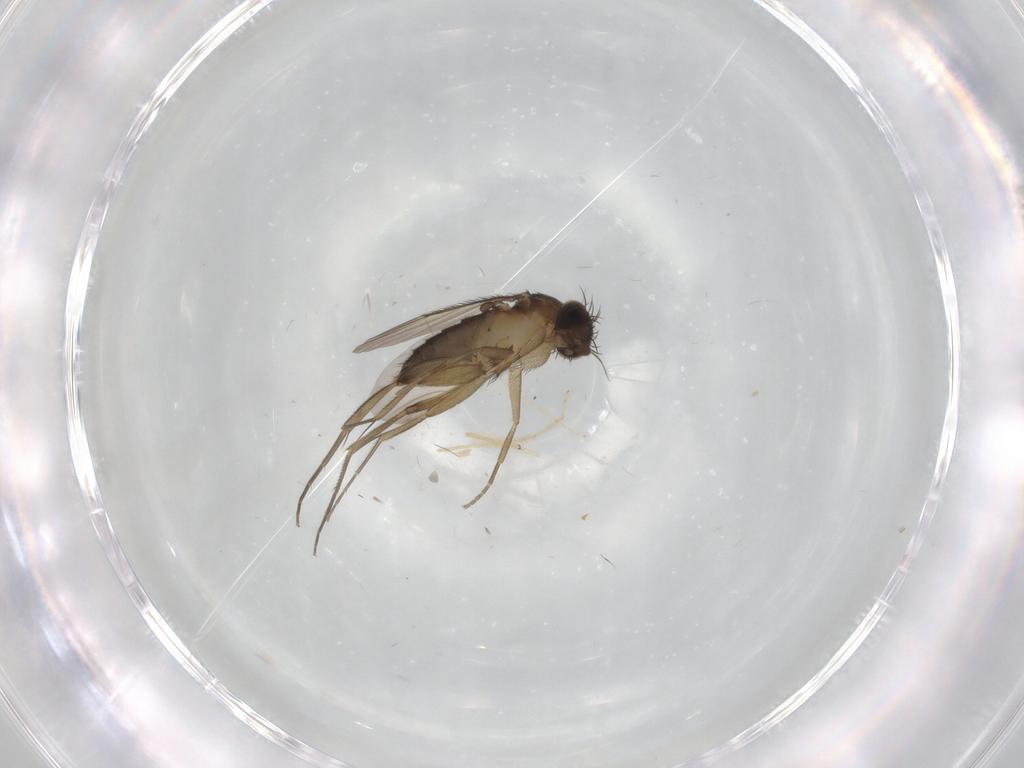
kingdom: Animalia
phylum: Arthropoda
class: Insecta
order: Diptera
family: Phoridae
